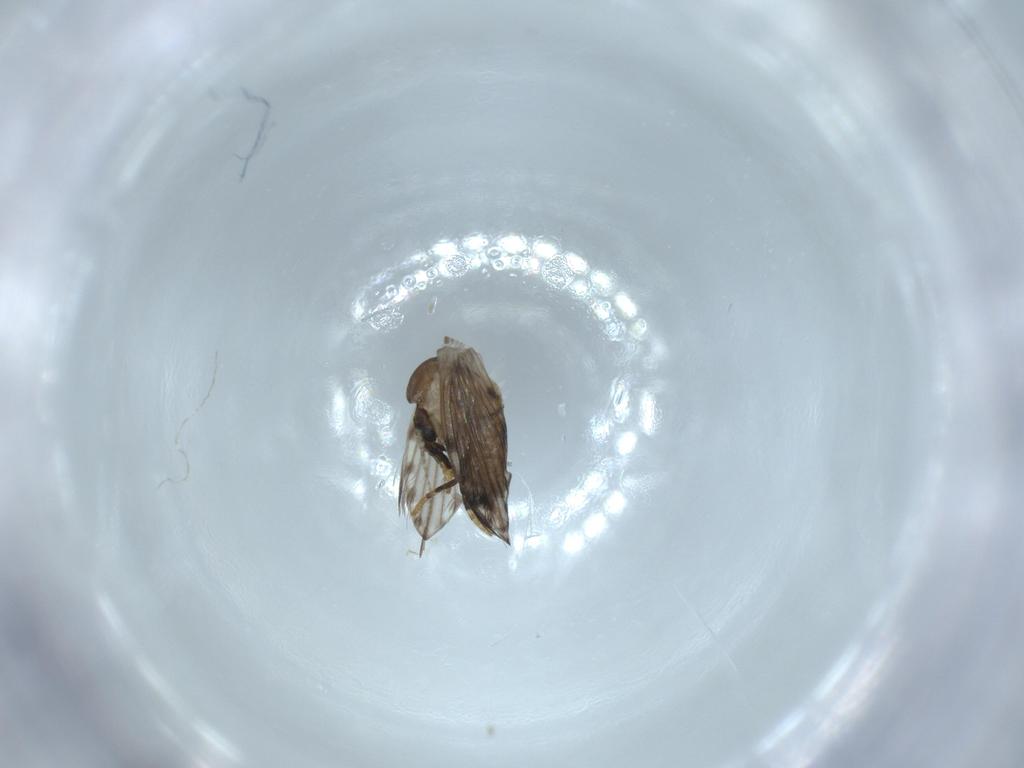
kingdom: Animalia
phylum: Arthropoda
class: Insecta
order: Diptera
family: Psychodidae
